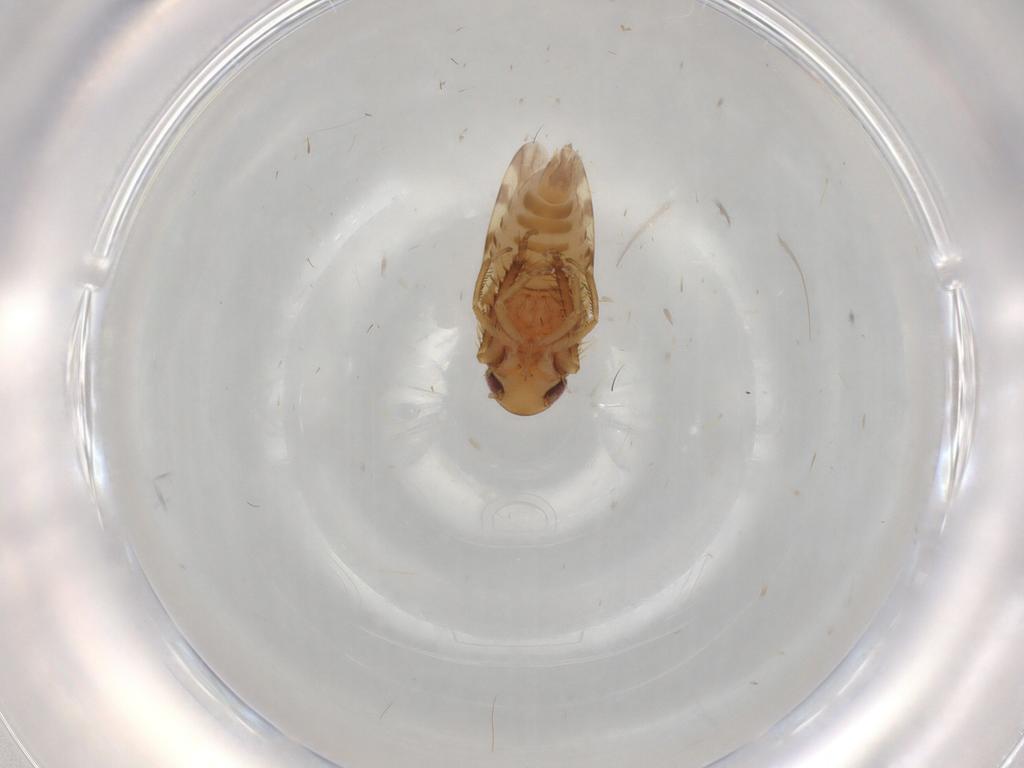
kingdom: Animalia
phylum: Arthropoda
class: Insecta
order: Hemiptera
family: Cicadellidae
